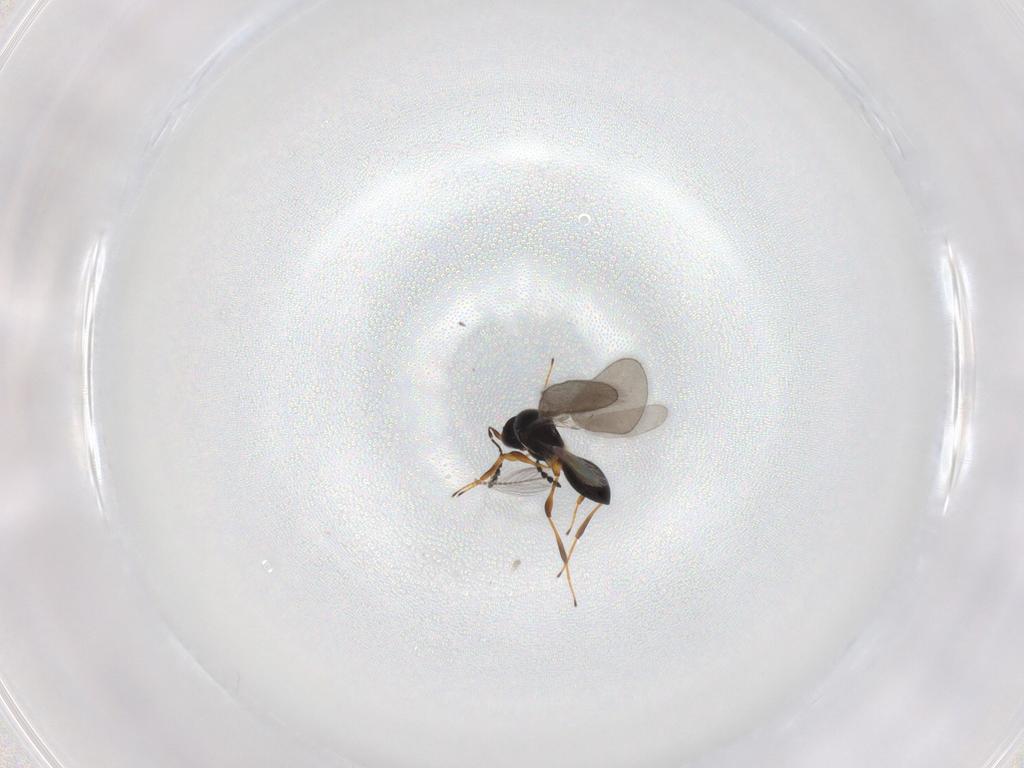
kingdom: Animalia
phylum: Arthropoda
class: Insecta
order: Hymenoptera
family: Platygastridae
